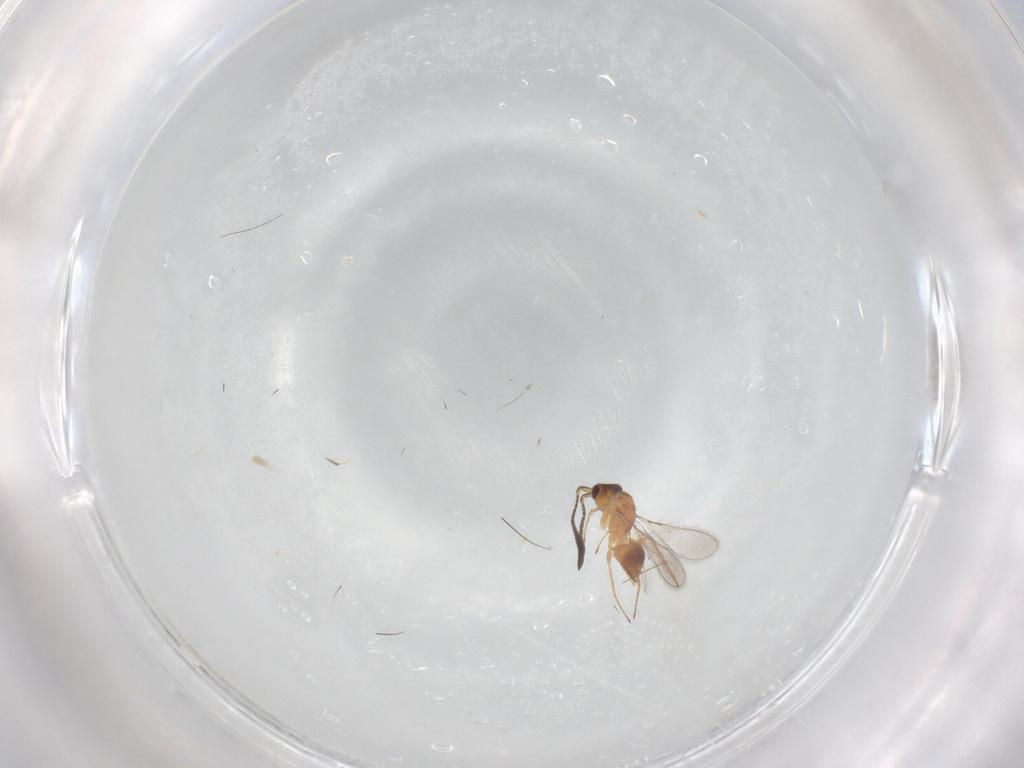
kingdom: Animalia
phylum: Arthropoda
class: Insecta
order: Hymenoptera
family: Mymaridae
